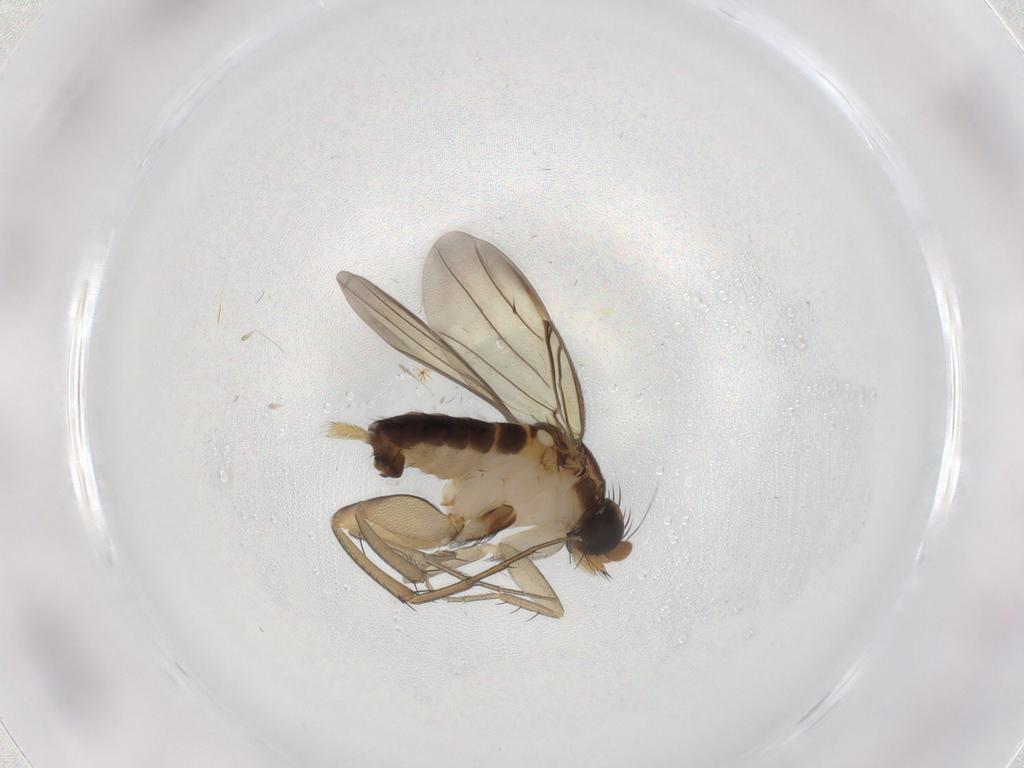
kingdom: Animalia
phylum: Arthropoda
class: Insecta
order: Diptera
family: Phoridae
